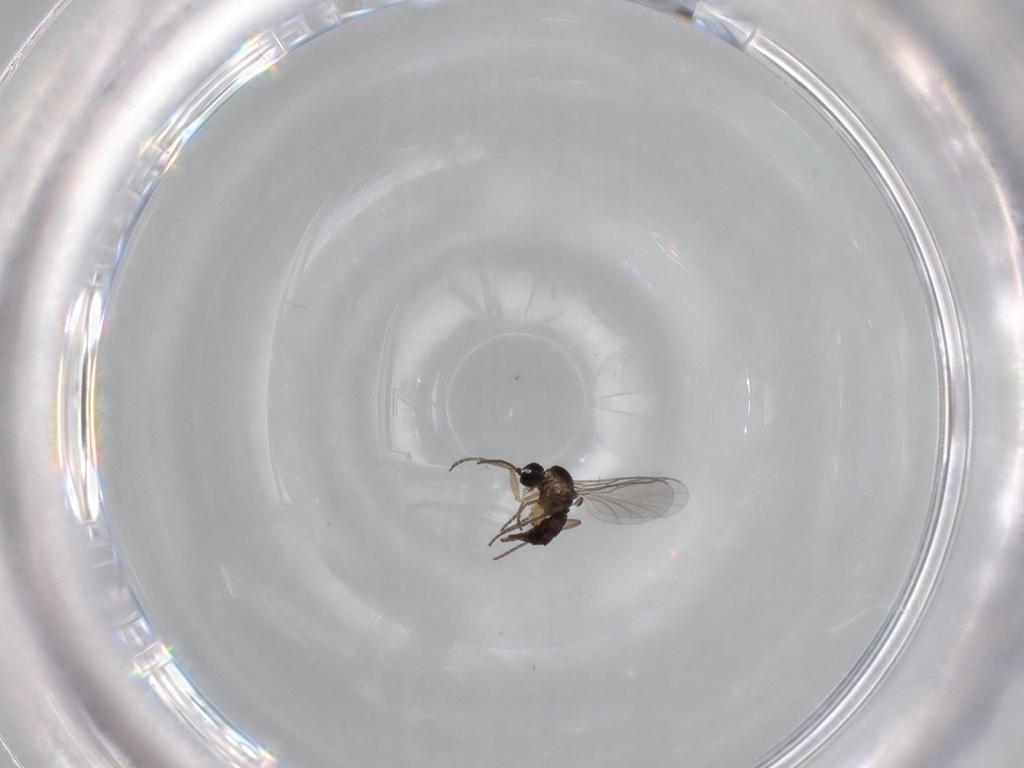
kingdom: Animalia
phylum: Arthropoda
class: Insecta
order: Diptera
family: Sciaridae
